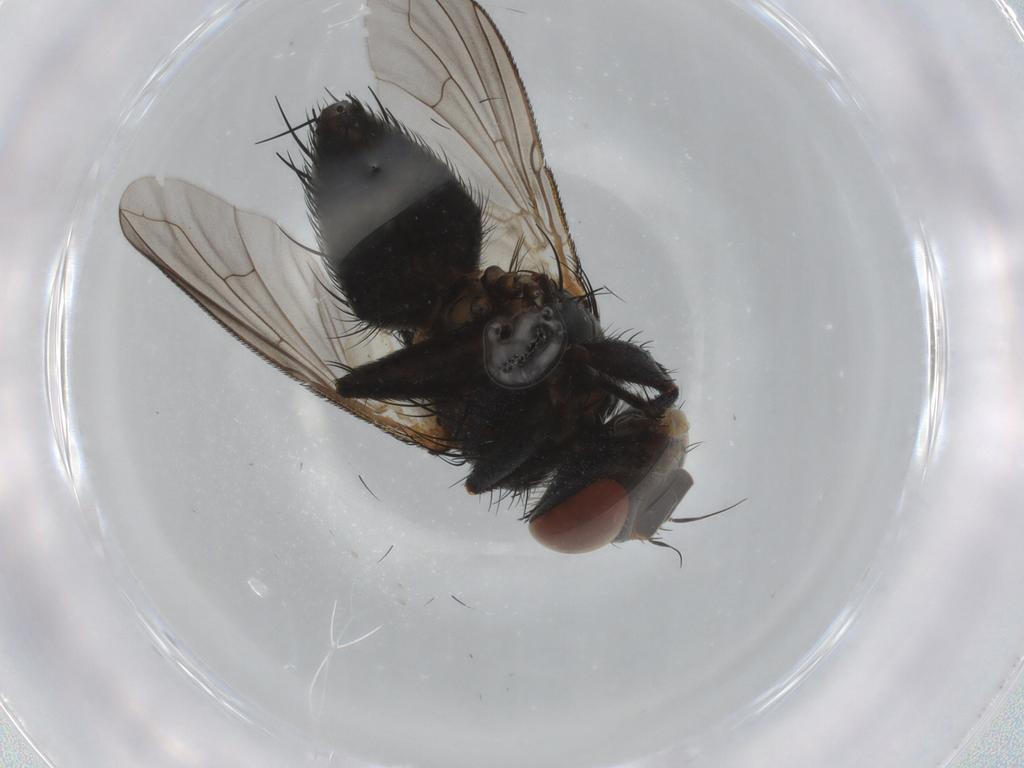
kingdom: Animalia
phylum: Arthropoda
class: Insecta
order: Diptera
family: Tachinidae
